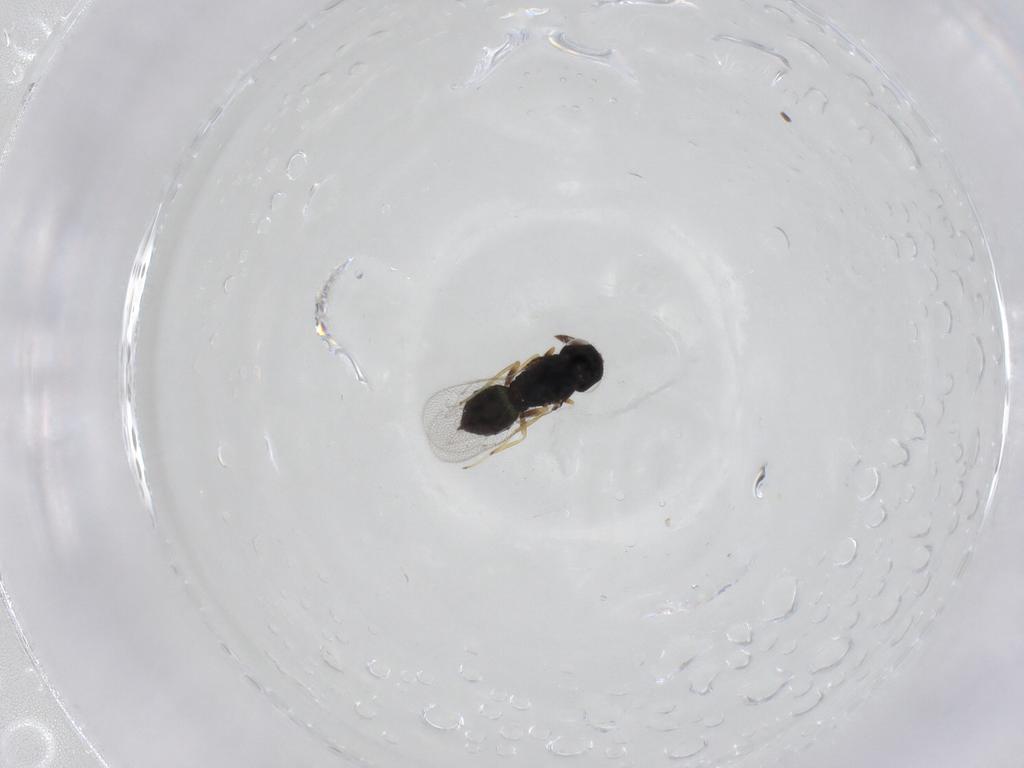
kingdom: Animalia
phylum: Arthropoda
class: Insecta
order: Hymenoptera
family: Eulophidae
